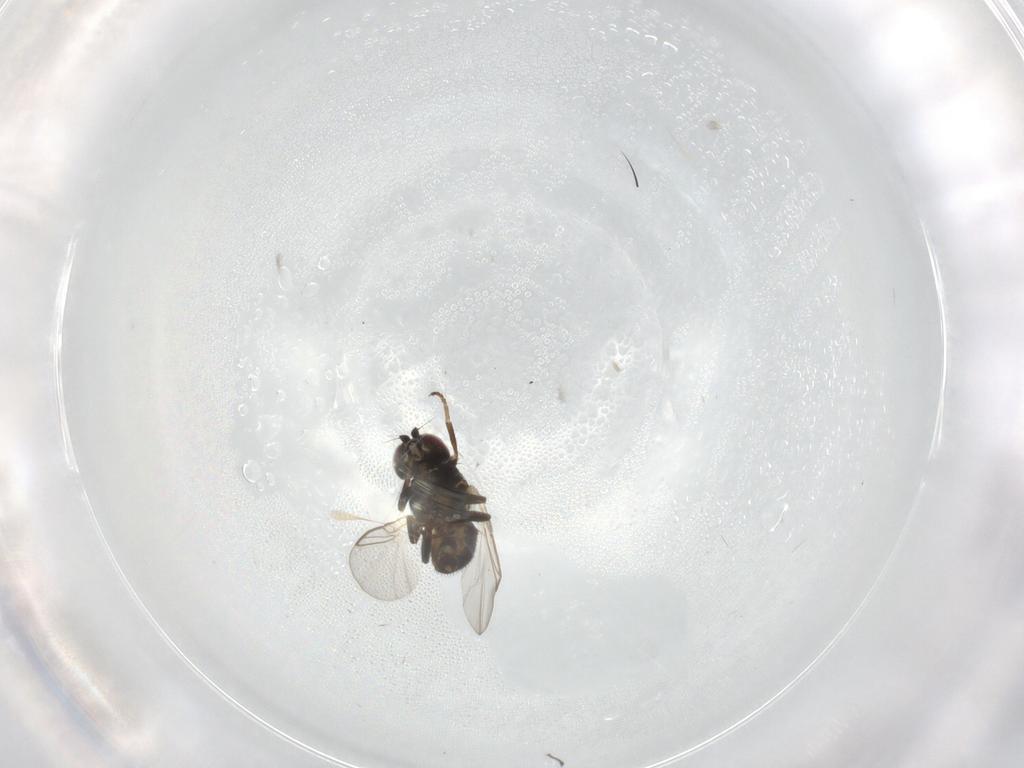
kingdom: Animalia
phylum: Arthropoda
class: Insecta
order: Diptera
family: Agromyzidae
